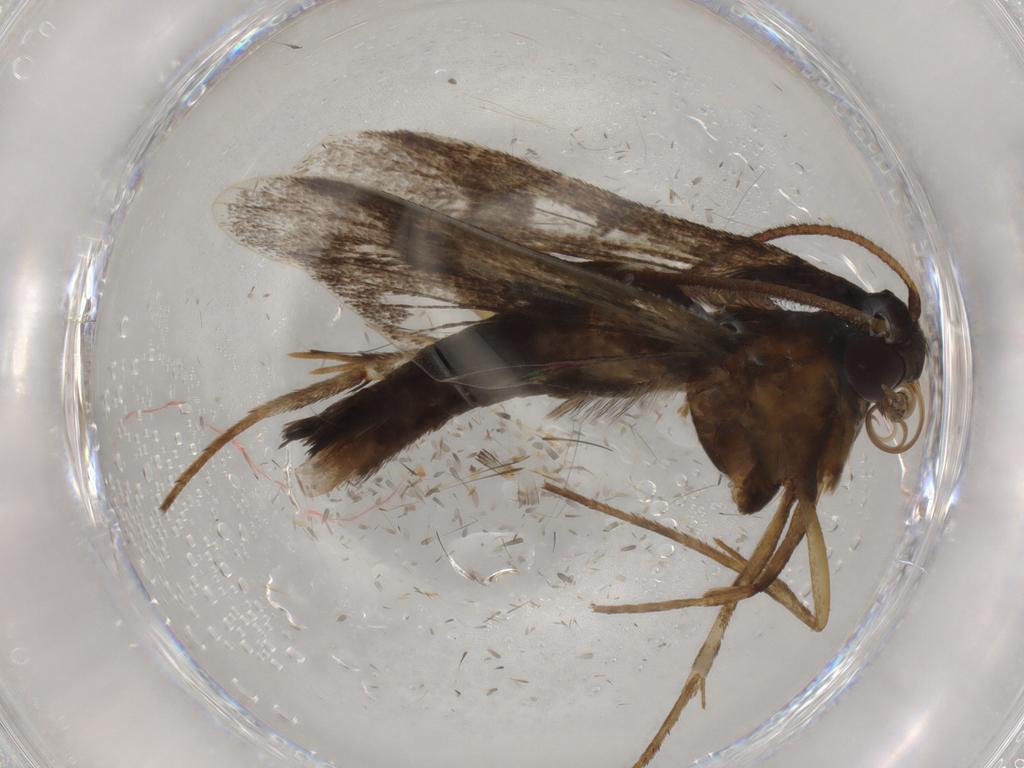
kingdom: Animalia
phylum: Arthropoda
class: Insecta
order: Lepidoptera
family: Sesiidae
